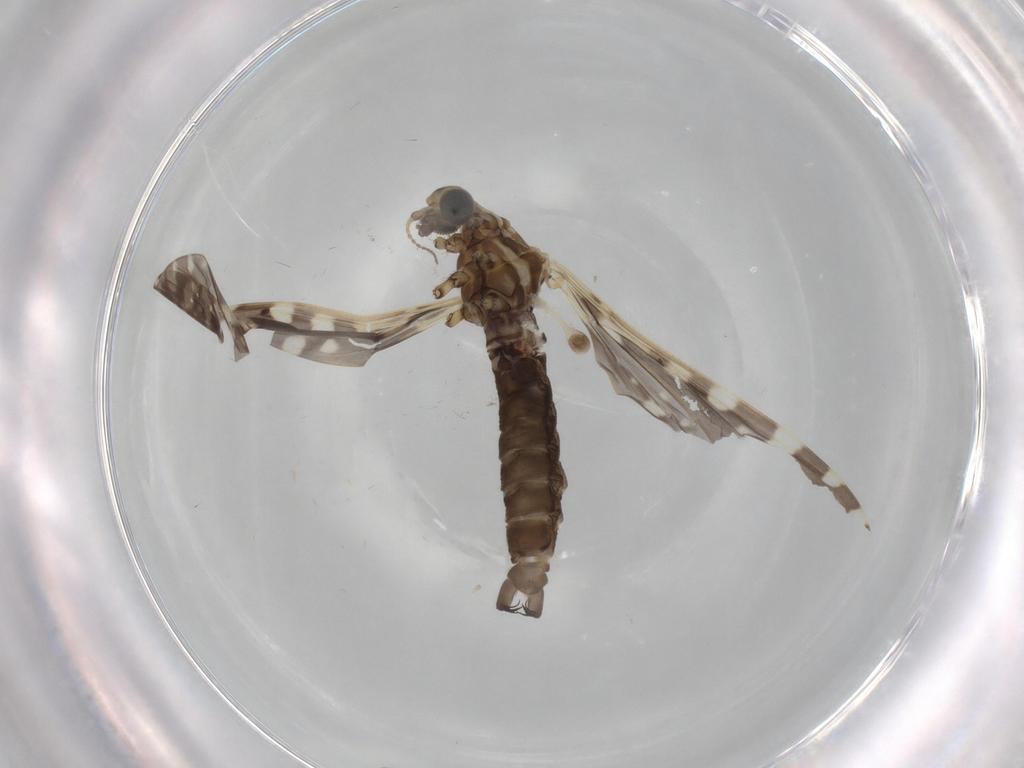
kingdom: Animalia
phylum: Arthropoda
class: Insecta
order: Diptera
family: Limoniidae
